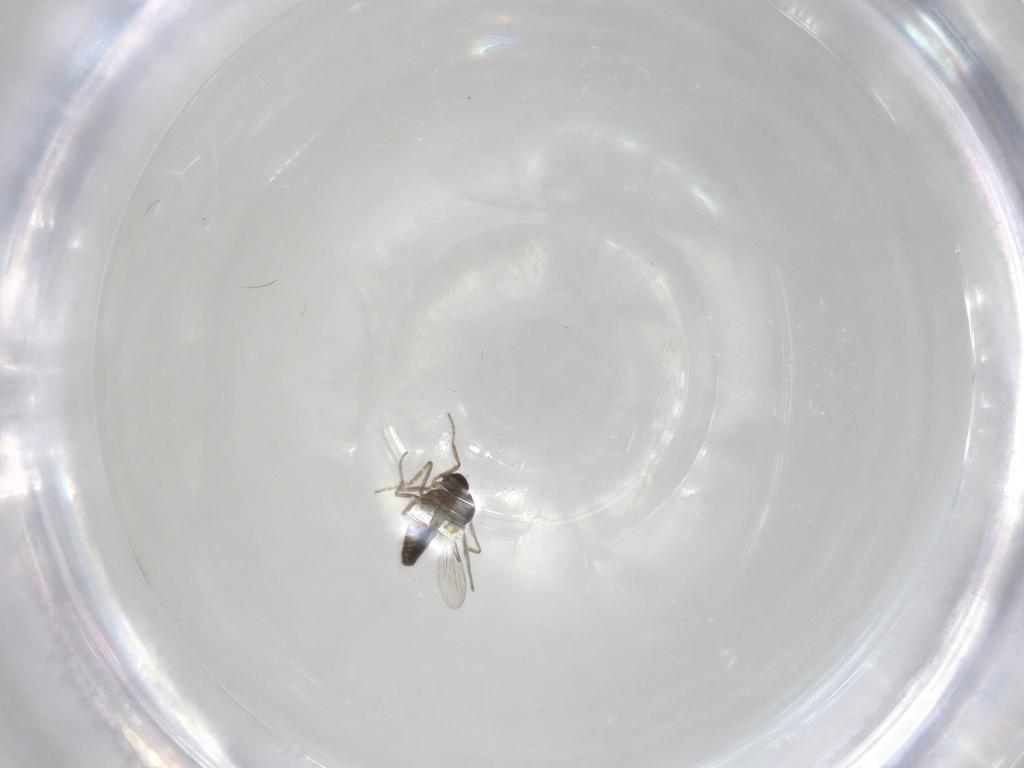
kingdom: Animalia
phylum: Arthropoda
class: Insecta
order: Diptera
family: Ceratopogonidae
